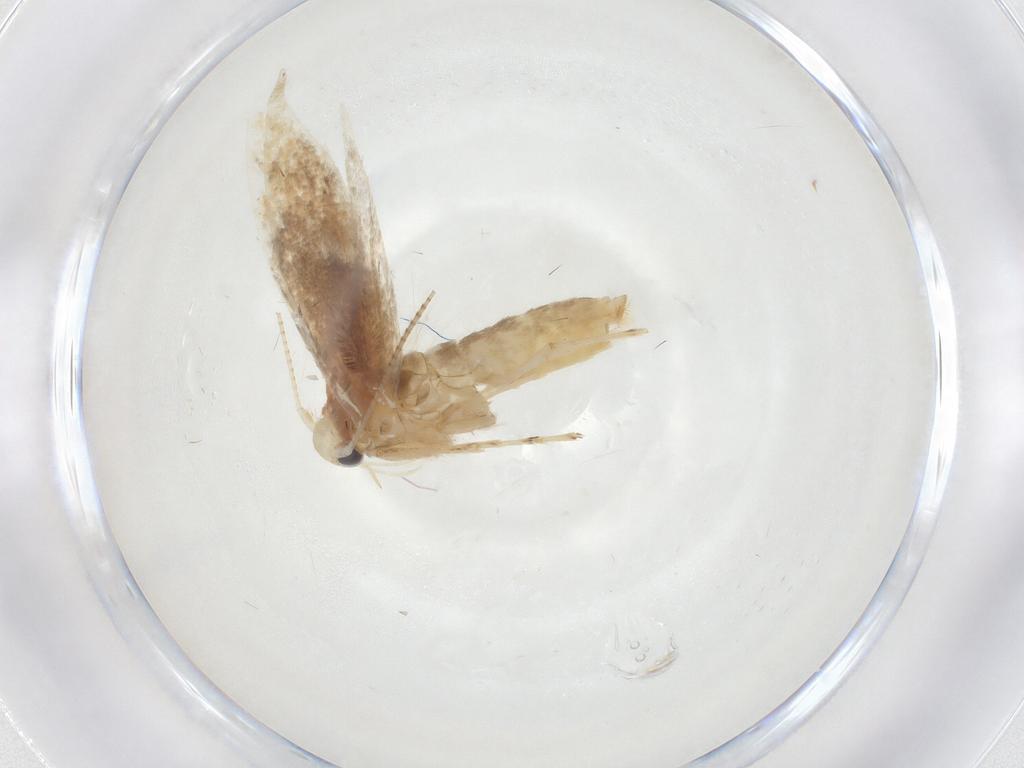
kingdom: Animalia
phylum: Arthropoda
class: Insecta
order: Lepidoptera
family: Gracillariidae
